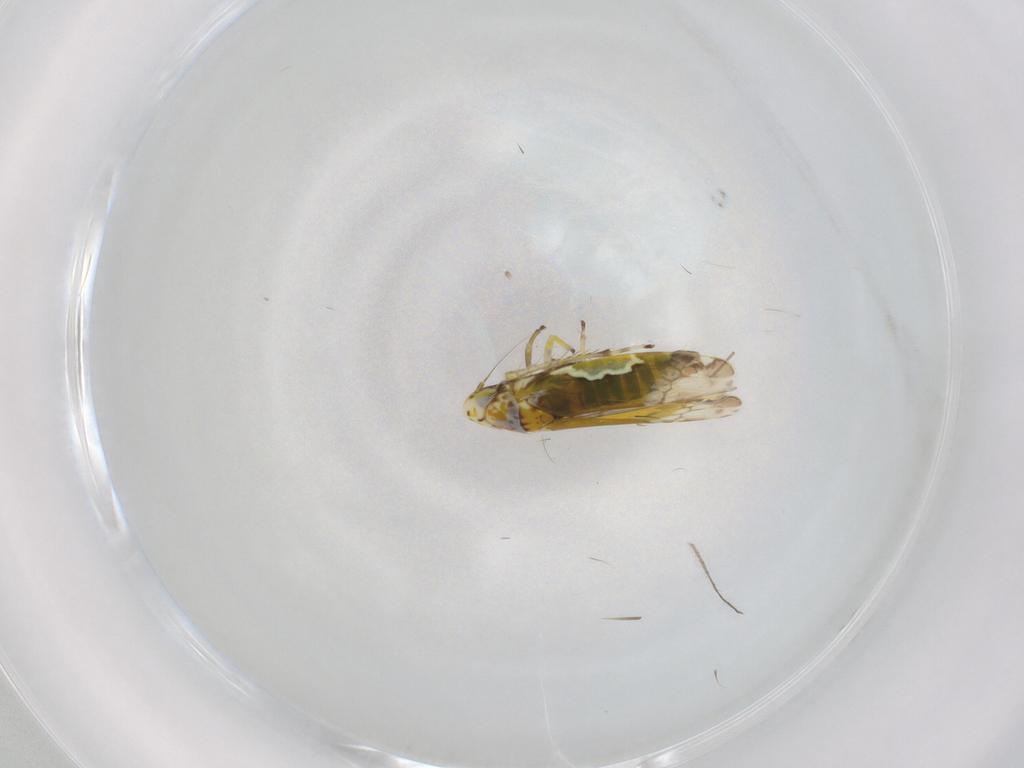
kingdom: Animalia
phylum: Arthropoda
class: Insecta
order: Hemiptera
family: Cicadellidae
